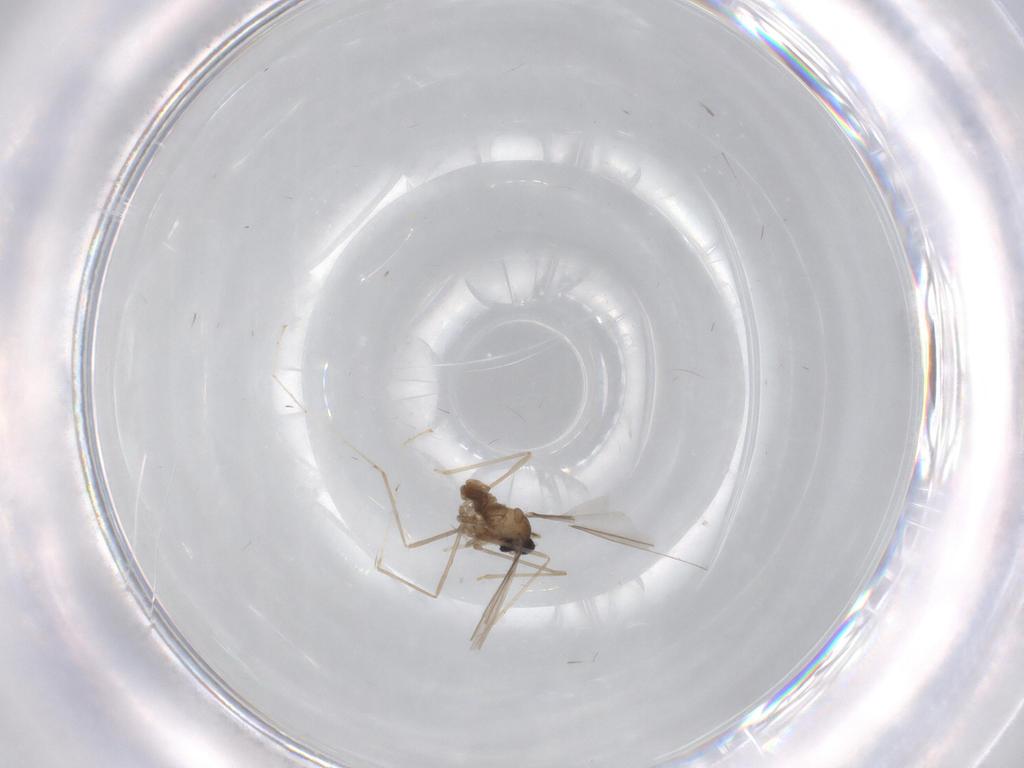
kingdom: Animalia
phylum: Arthropoda
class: Insecta
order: Diptera
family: Cecidomyiidae
